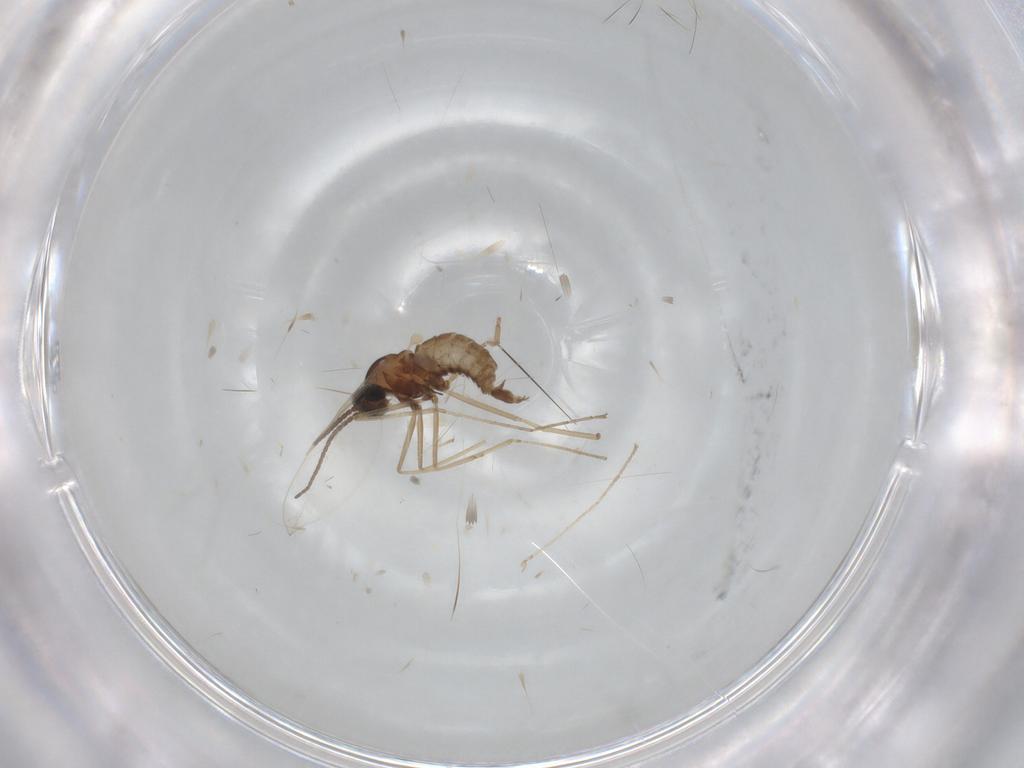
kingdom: Animalia
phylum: Arthropoda
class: Insecta
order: Diptera
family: Cecidomyiidae
